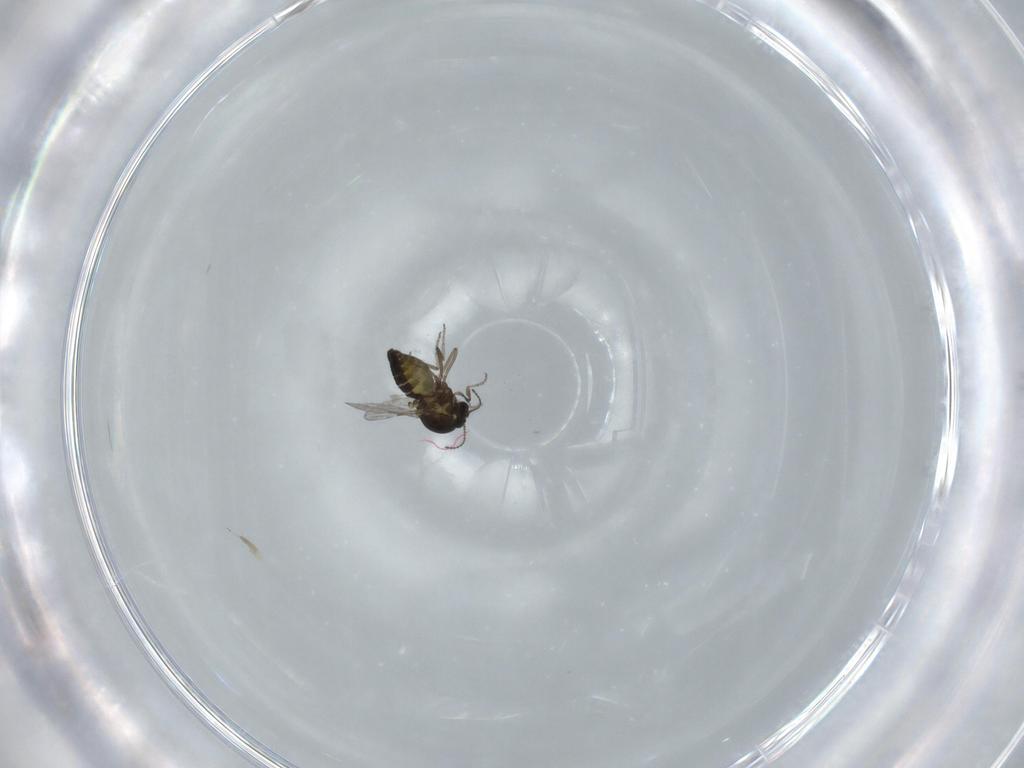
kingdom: Animalia
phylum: Arthropoda
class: Insecta
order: Diptera
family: Ceratopogonidae
